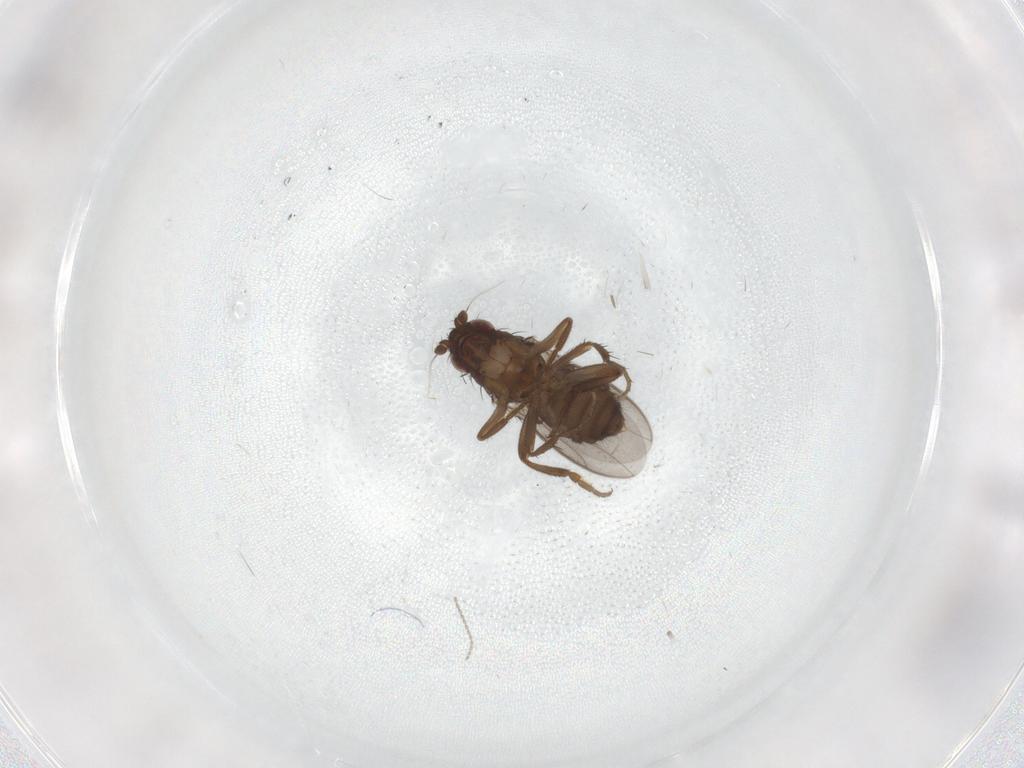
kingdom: Animalia
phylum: Arthropoda
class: Insecta
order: Diptera
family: Sphaeroceridae
